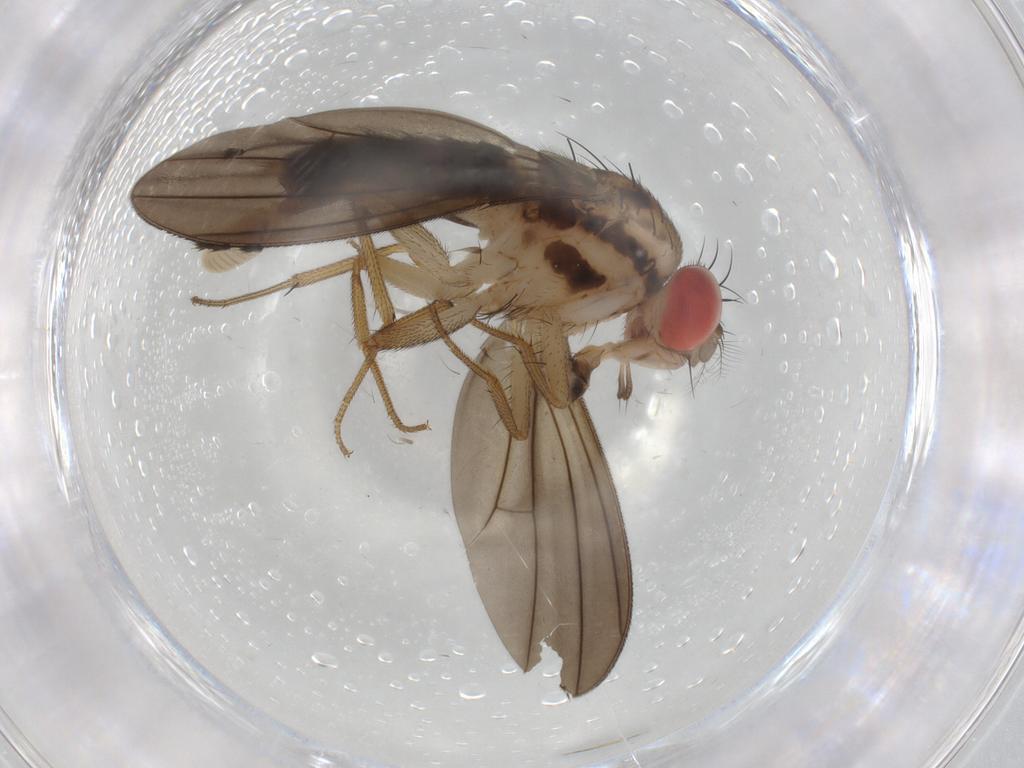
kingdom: Animalia
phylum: Arthropoda
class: Insecta
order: Diptera
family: Drosophilidae
